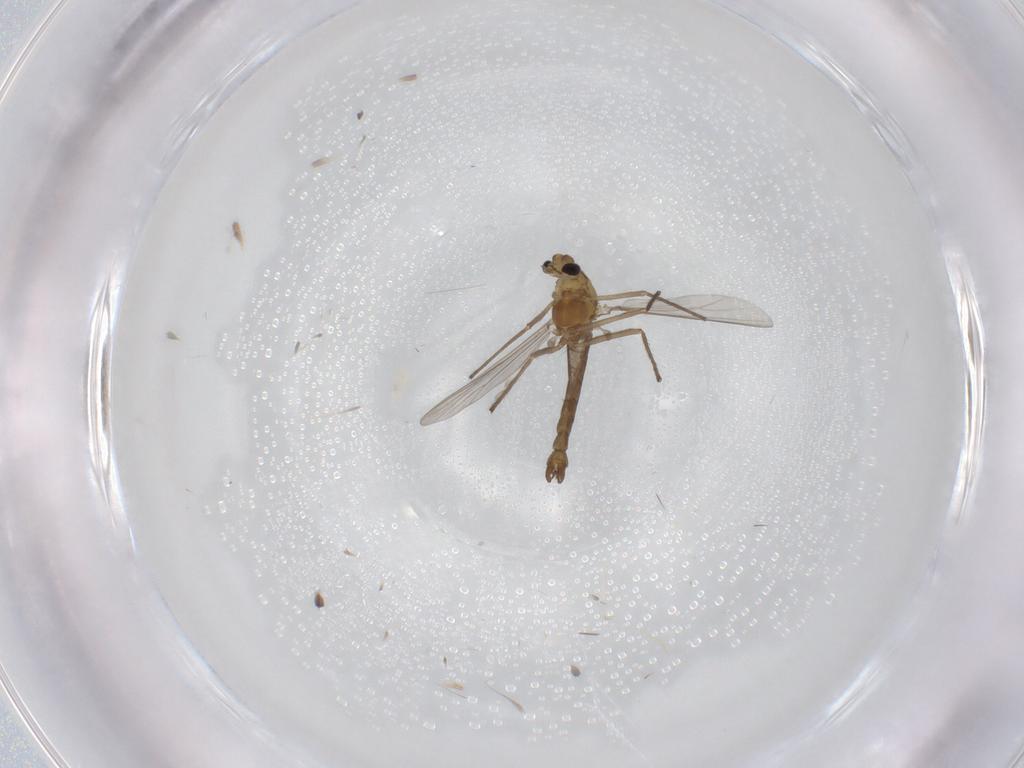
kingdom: Animalia
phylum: Arthropoda
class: Insecta
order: Diptera
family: Chironomidae
